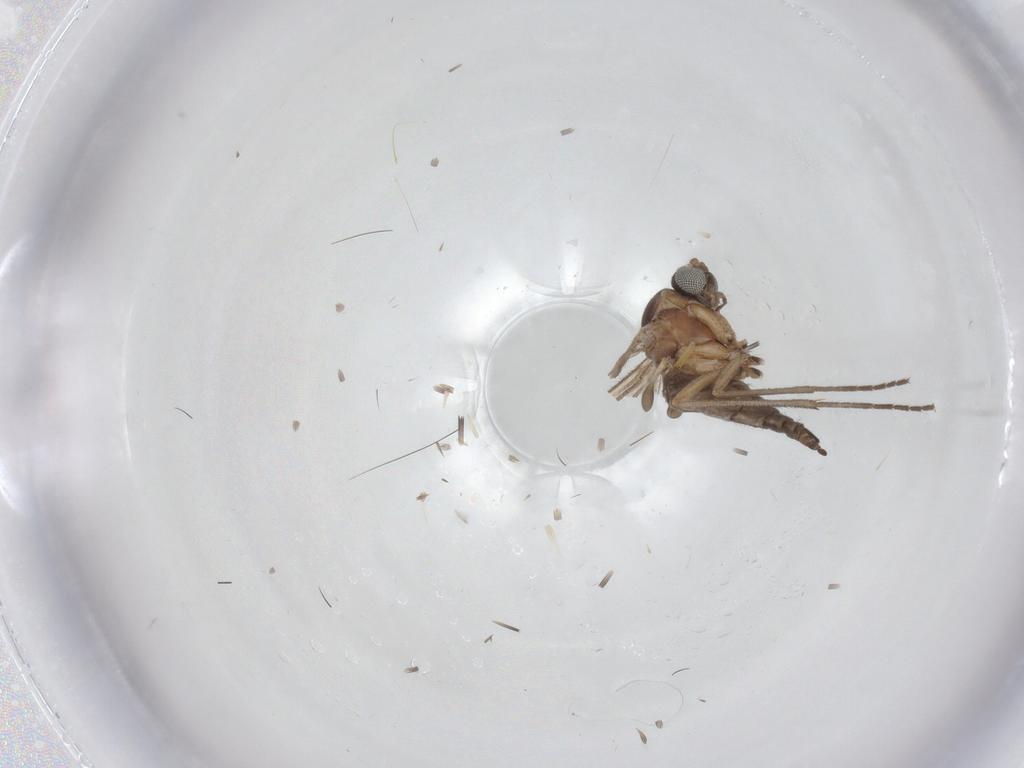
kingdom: Animalia
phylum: Arthropoda
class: Insecta
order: Diptera
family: Sciaridae
